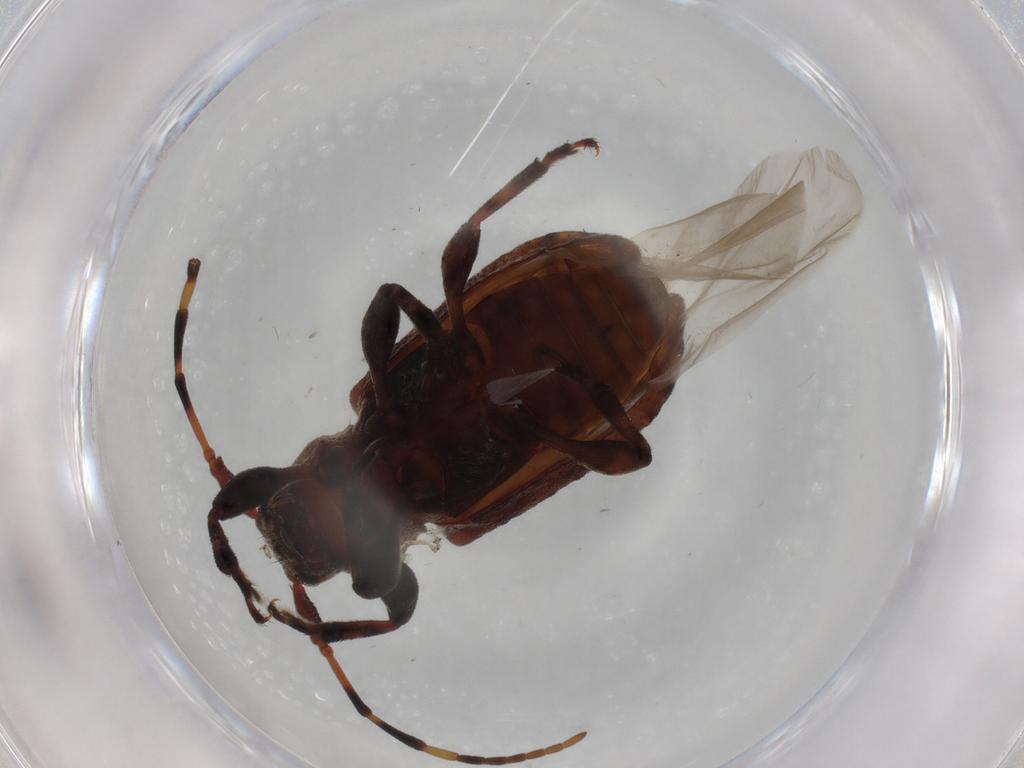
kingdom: Animalia
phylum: Arthropoda
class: Insecta
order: Coleoptera
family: Cerambycidae
